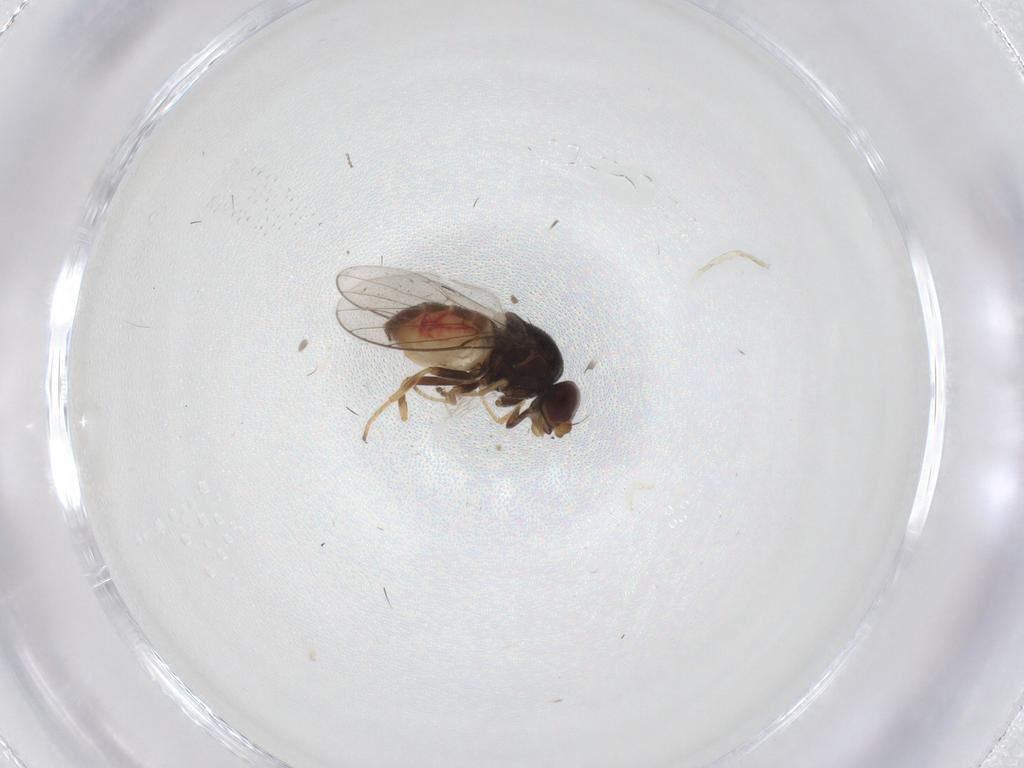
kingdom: Animalia
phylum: Arthropoda
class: Insecta
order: Diptera
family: Chloropidae
